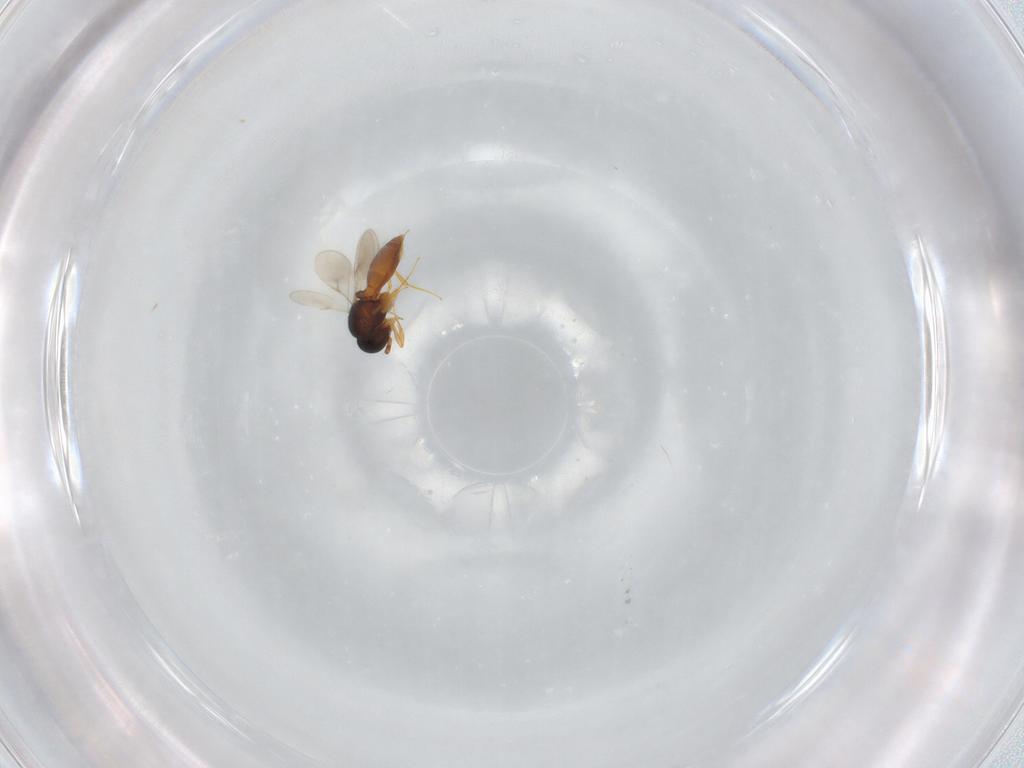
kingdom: Animalia
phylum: Arthropoda
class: Insecta
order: Hymenoptera
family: Scelionidae
